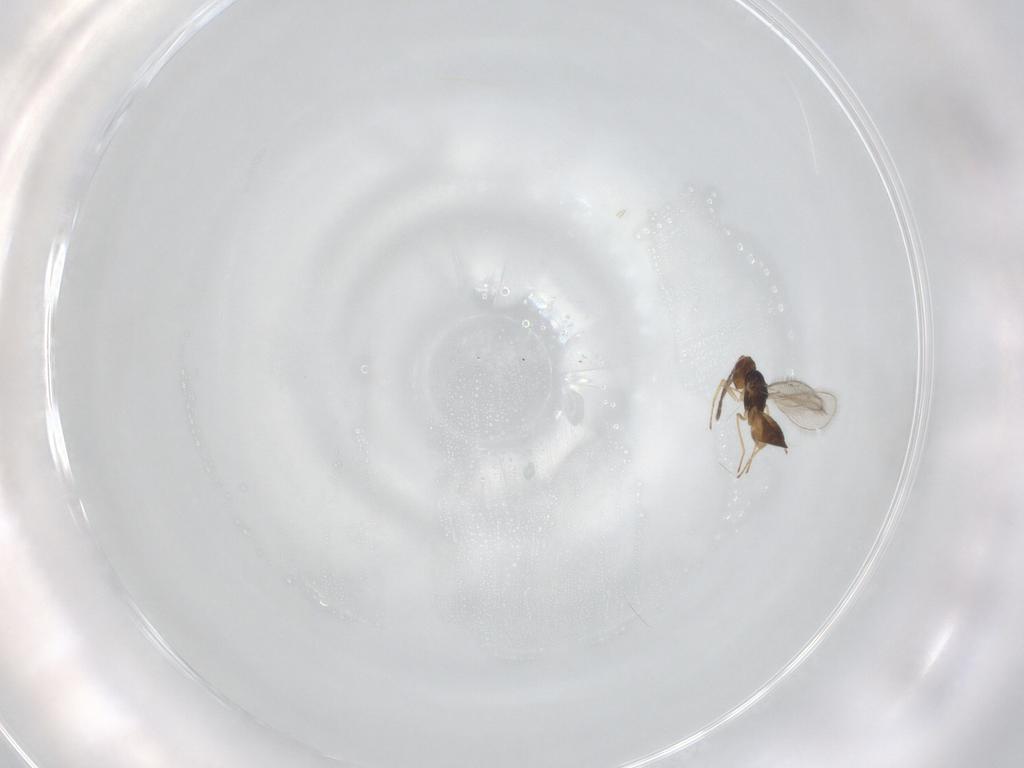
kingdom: Animalia
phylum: Arthropoda
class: Insecta
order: Hymenoptera
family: Eulophidae
